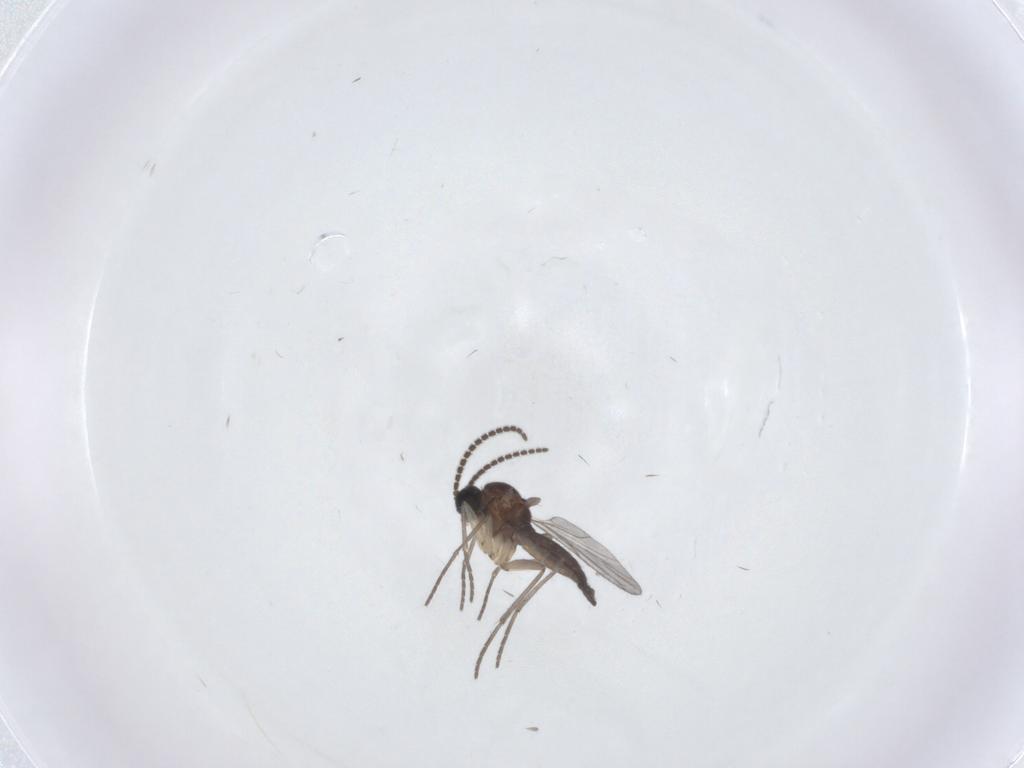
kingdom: Animalia
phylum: Arthropoda
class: Insecta
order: Diptera
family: Sciaridae
